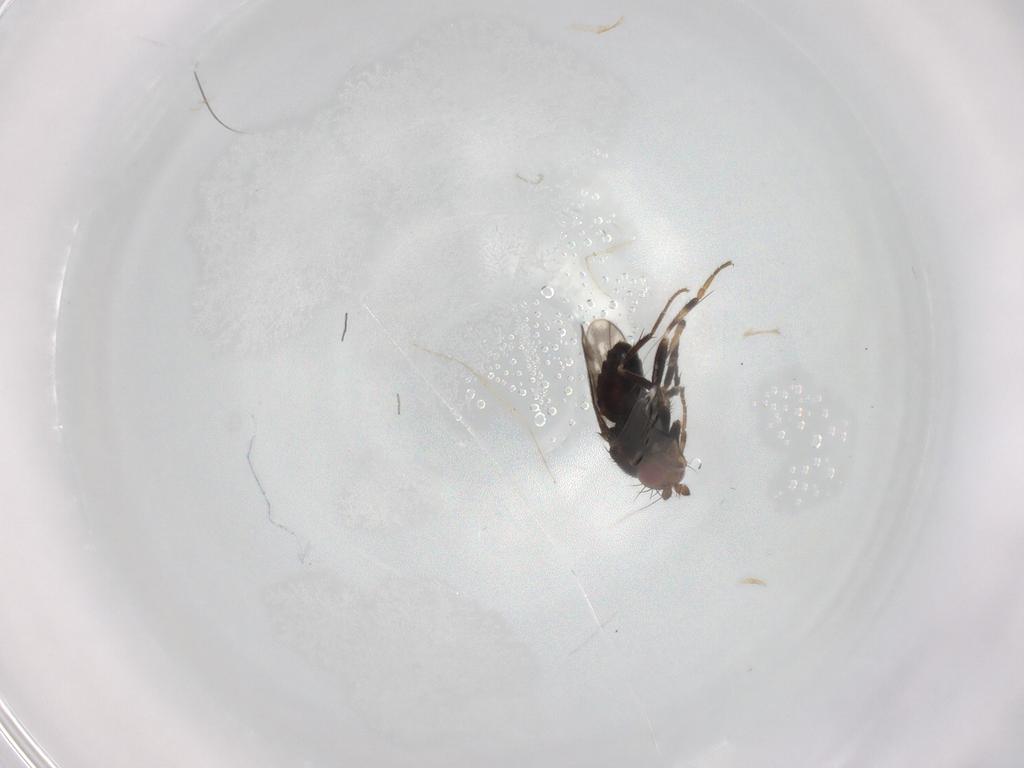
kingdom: Animalia
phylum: Arthropoda
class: Insecta
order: Diptera
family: Sphaeroceridae
